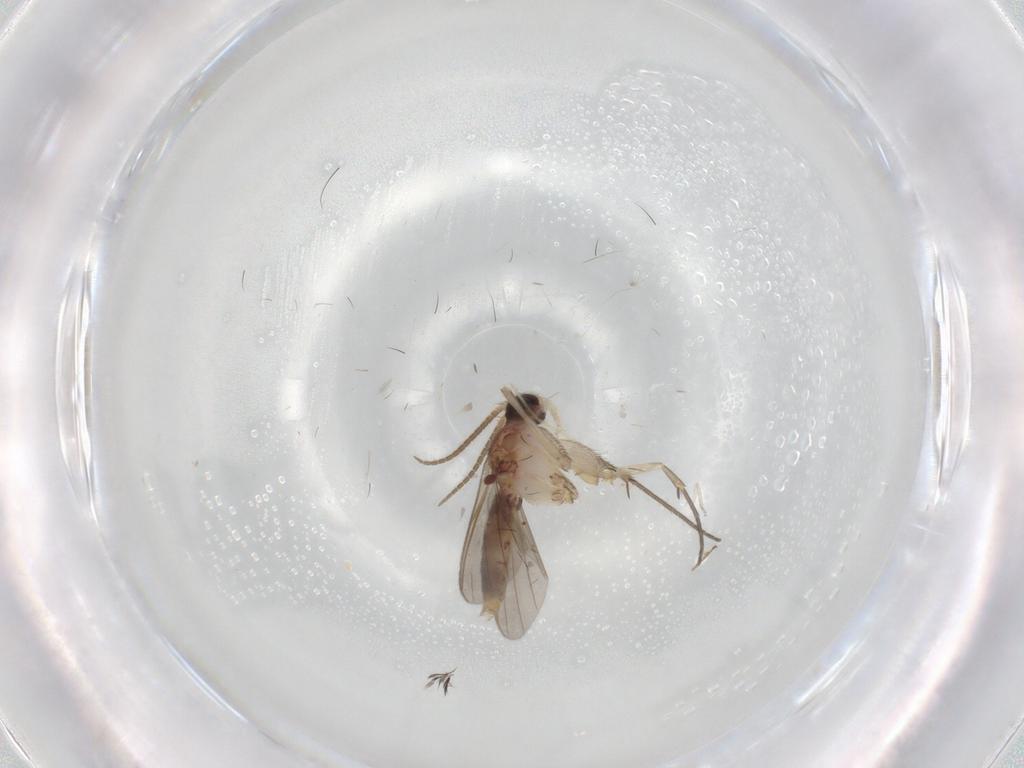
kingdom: Animalia
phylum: Arthropoda
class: Insecta
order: Diptera
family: Mycetophilidae
